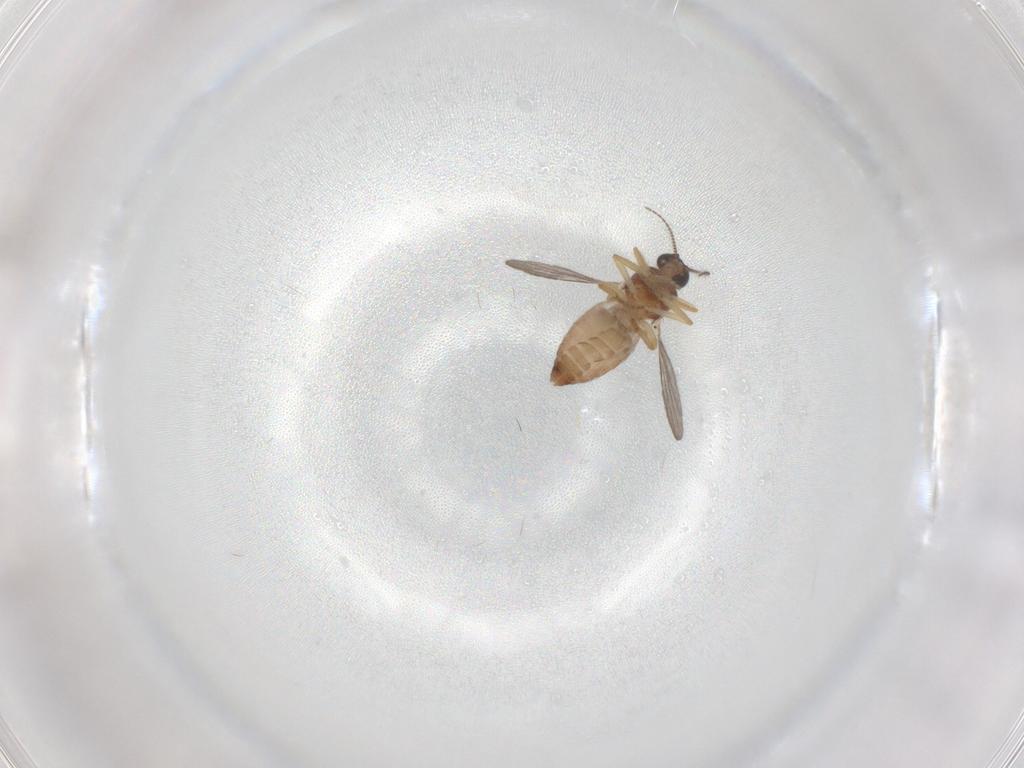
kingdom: Animalia
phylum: Arthropoda
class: Insecta
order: Diptera
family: Ceratopogonidae
